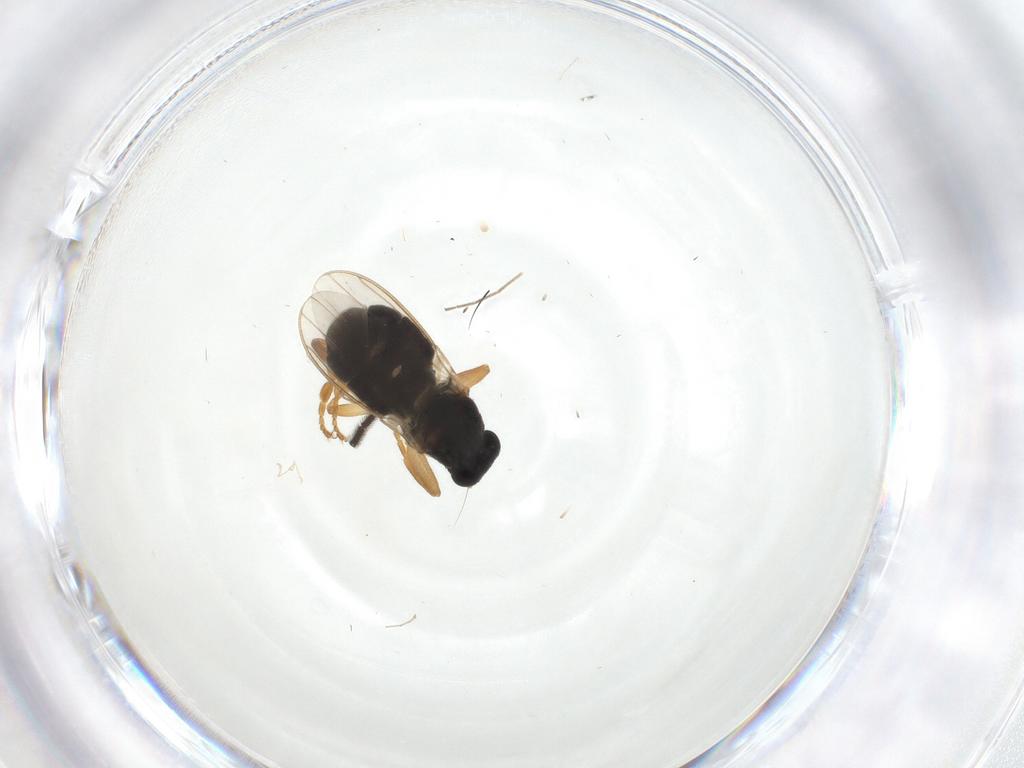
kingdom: Animalia
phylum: Arthropoda
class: Insecta
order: Diptera
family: Sciaridae
